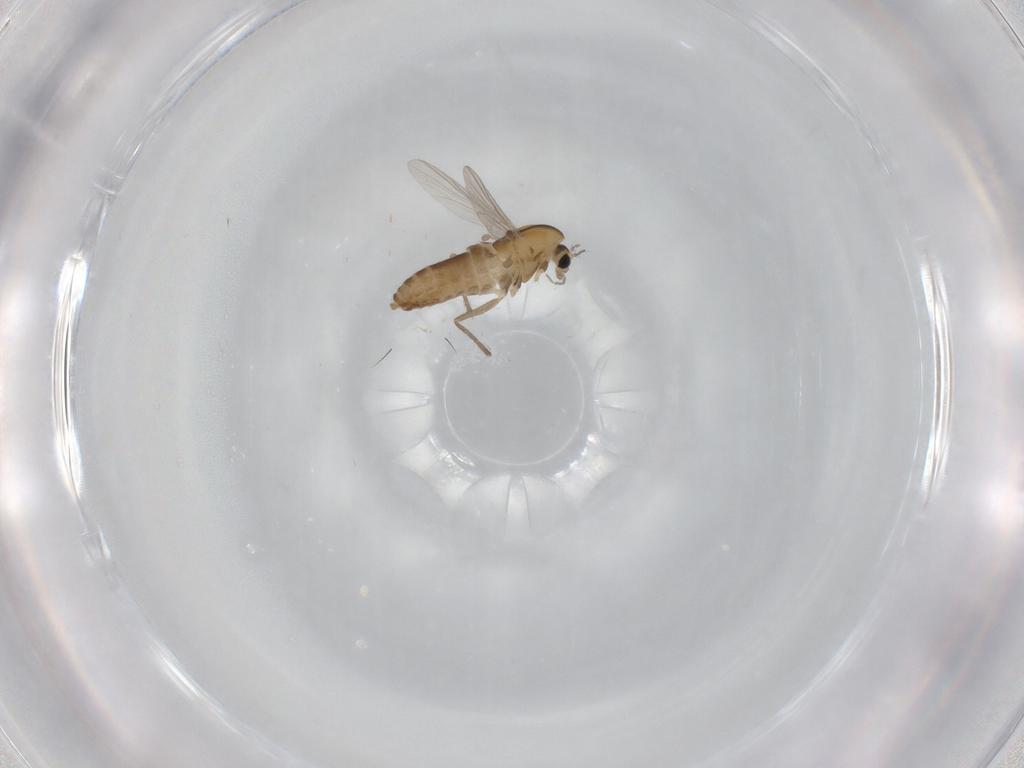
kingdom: Animalia
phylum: Arthropoda
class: Insecta
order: Diptera
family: Chironomidae
